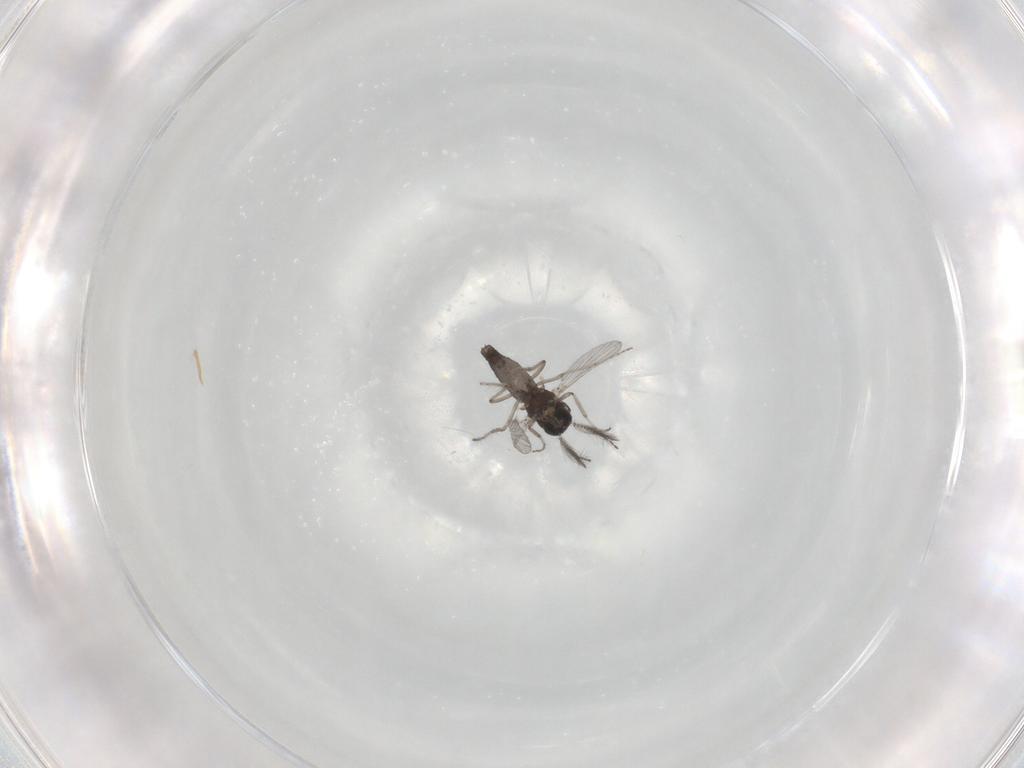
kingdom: Animalia
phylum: Arthropoda
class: Insecta
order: Diptera
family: Ceratopogonidae
